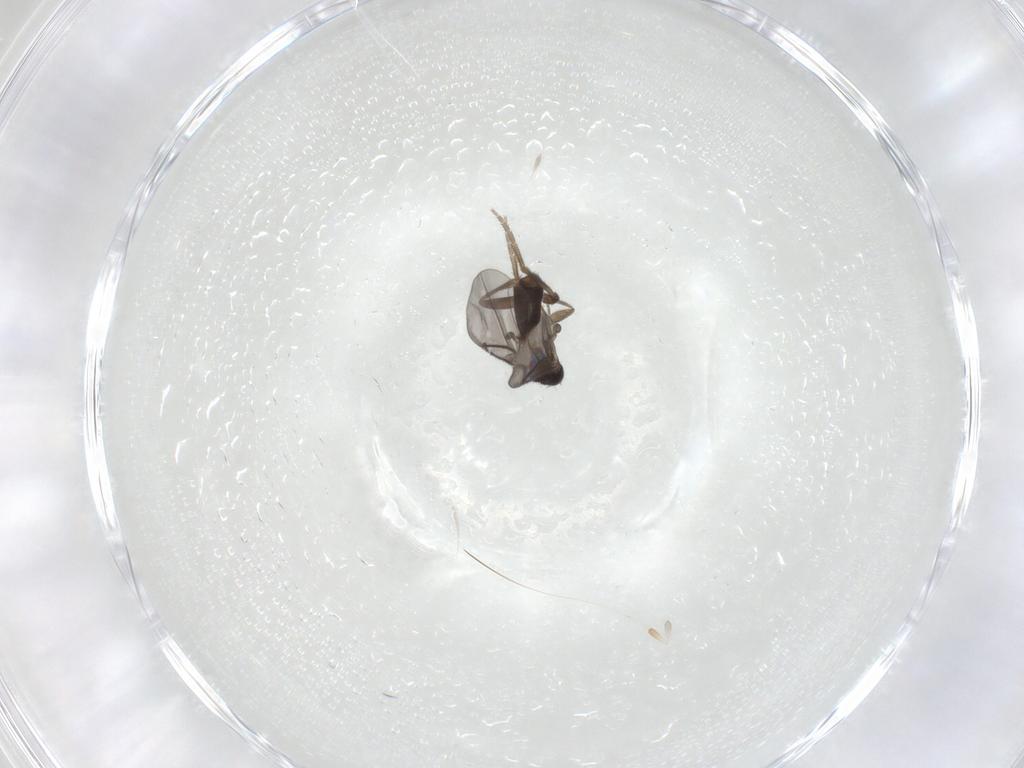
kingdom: Animalia
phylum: Arthropoda
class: Insecta
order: Diptera
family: Phoridae
